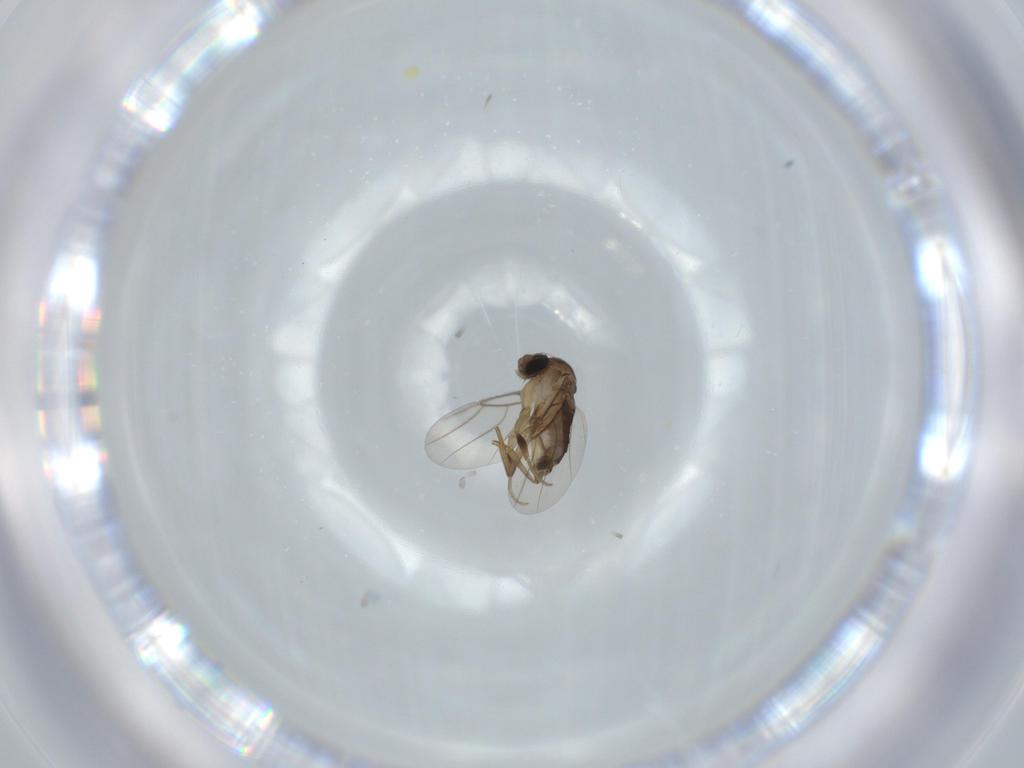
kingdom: Animalia
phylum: Arthropoda
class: Insecta
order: Diptera
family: Phoridae
